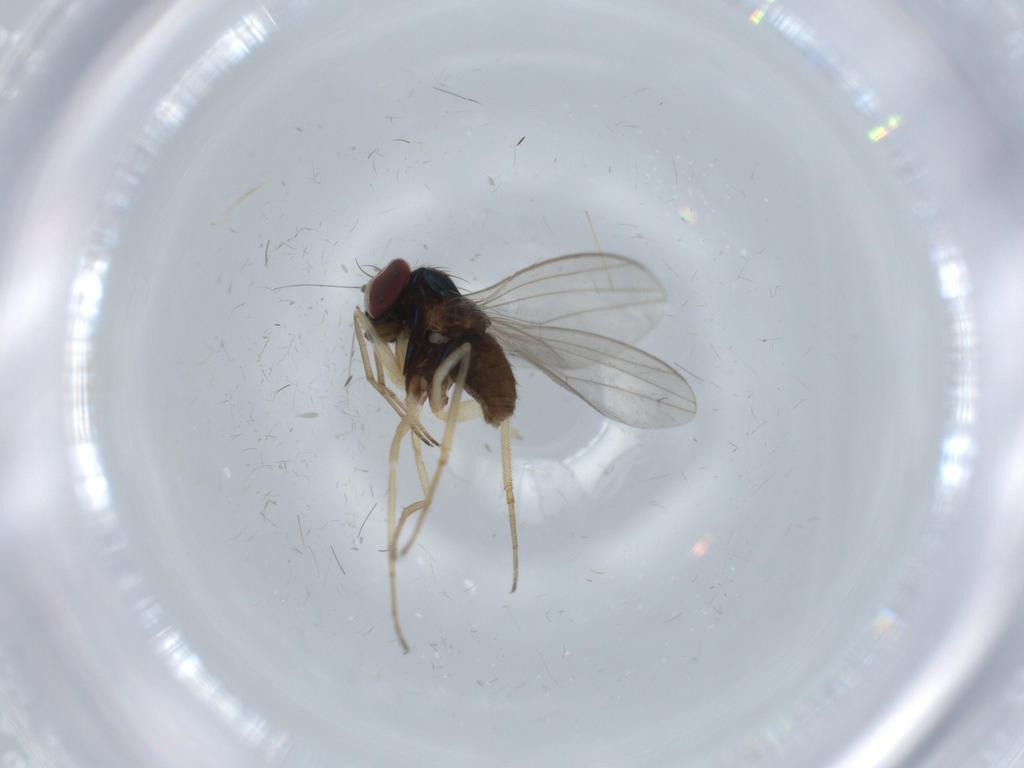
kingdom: Animalia
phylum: Arthropoda
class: Insecta
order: Diptera
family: Dolichopodidae
